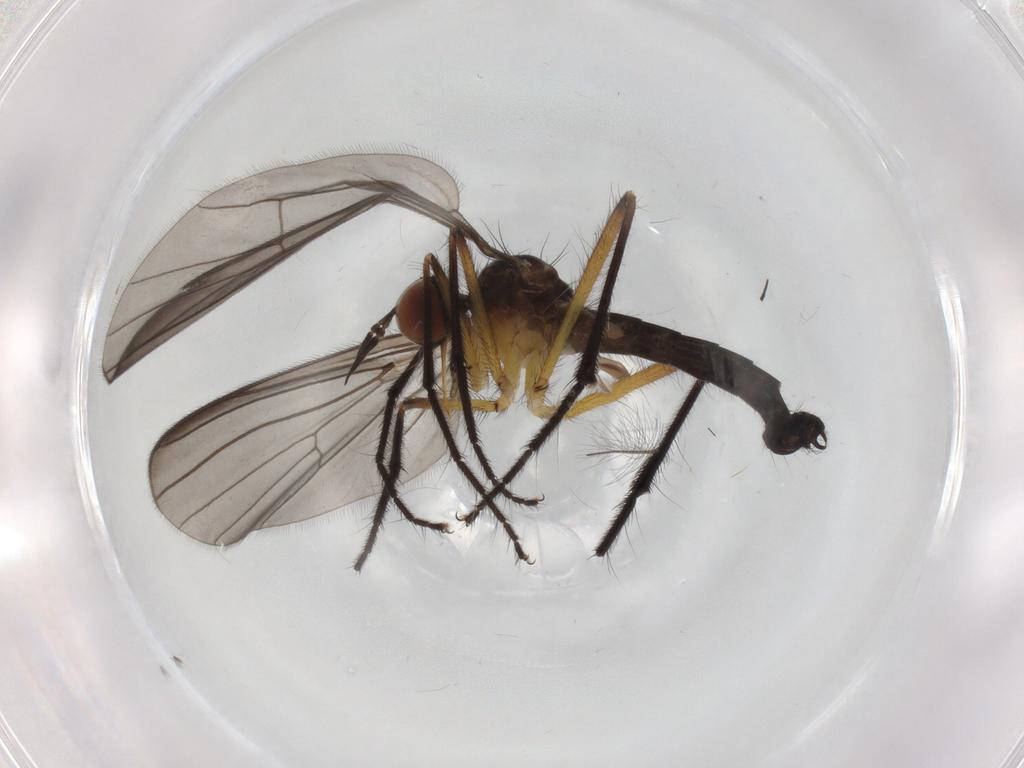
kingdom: Animalia
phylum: Arthropoda
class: Insecta
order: Diptera
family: Empididae
